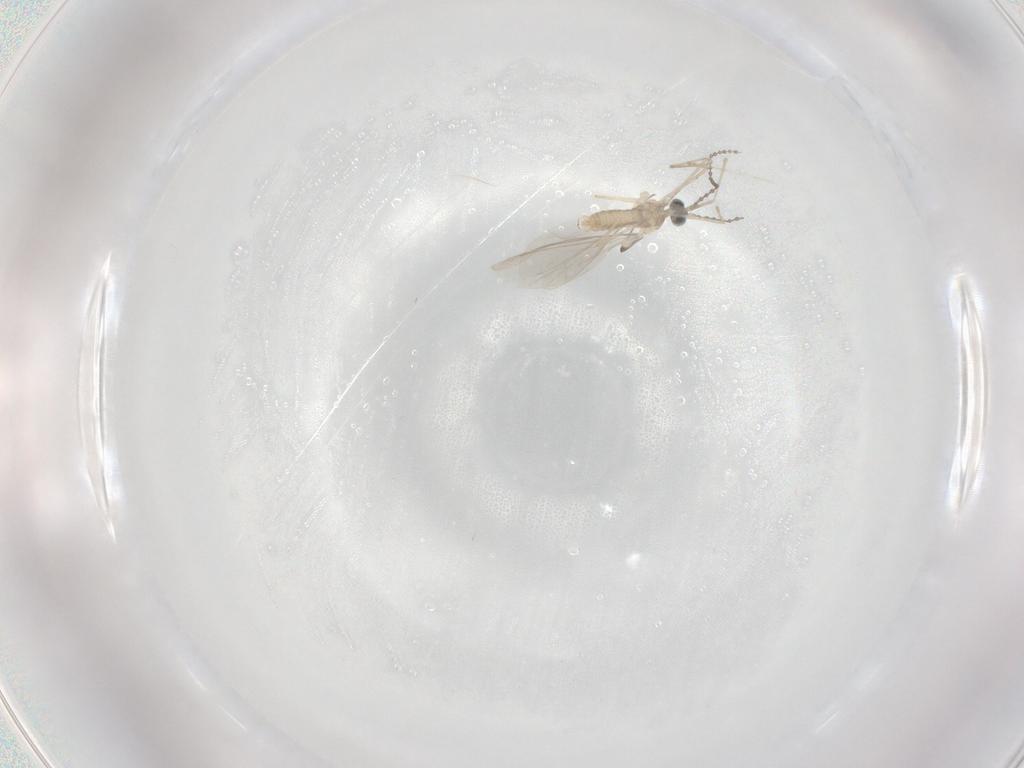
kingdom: Animalia
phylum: Arthropoda
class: Insecta
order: Diptera
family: Cecidomyiidae
